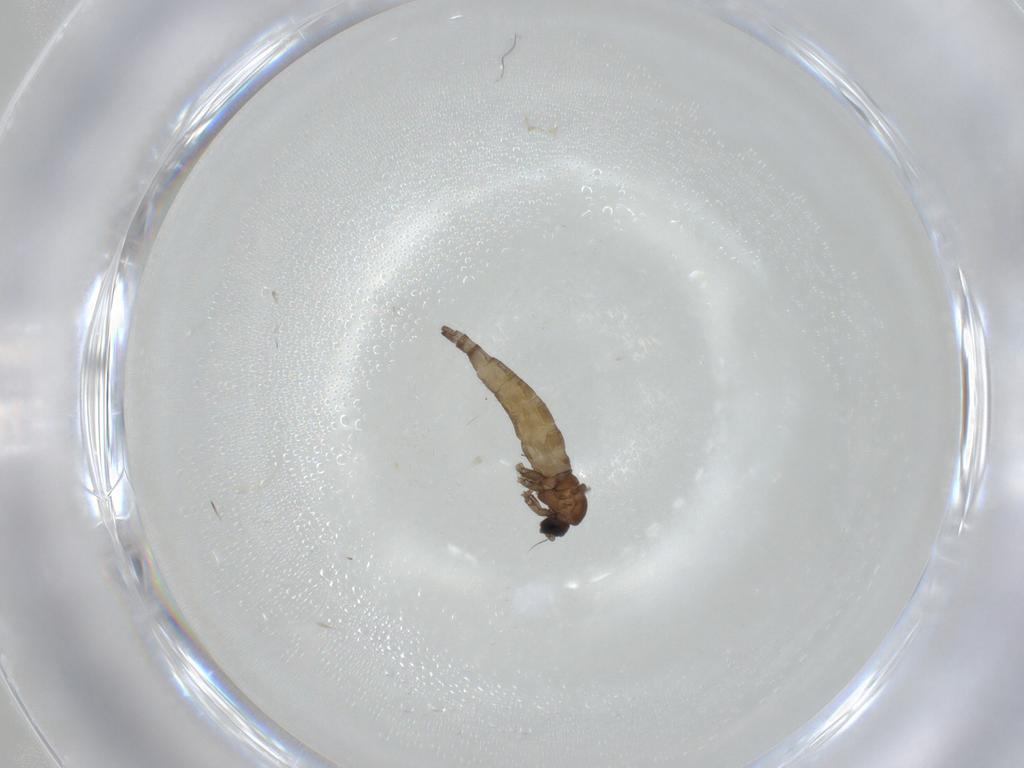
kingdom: Animalia
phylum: Arthropoda
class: Insecta
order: Diptera
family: Sciaridae
